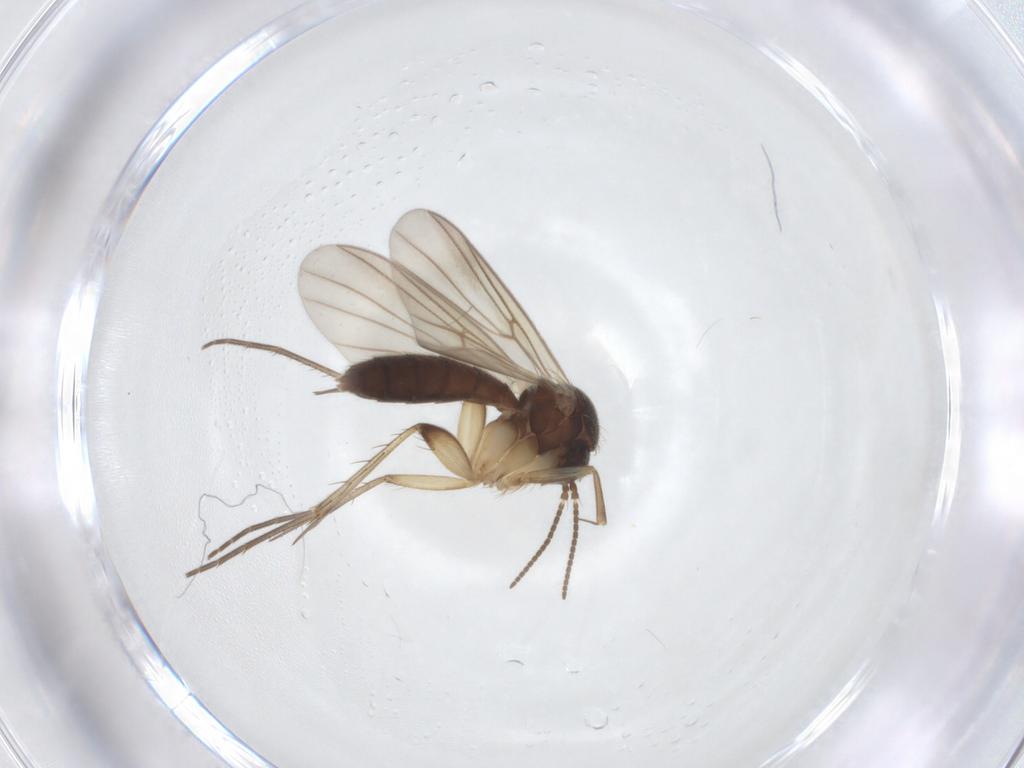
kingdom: Animalia
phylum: Arthropoda
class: Insecta
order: Diptera
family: Mycetophilidae
